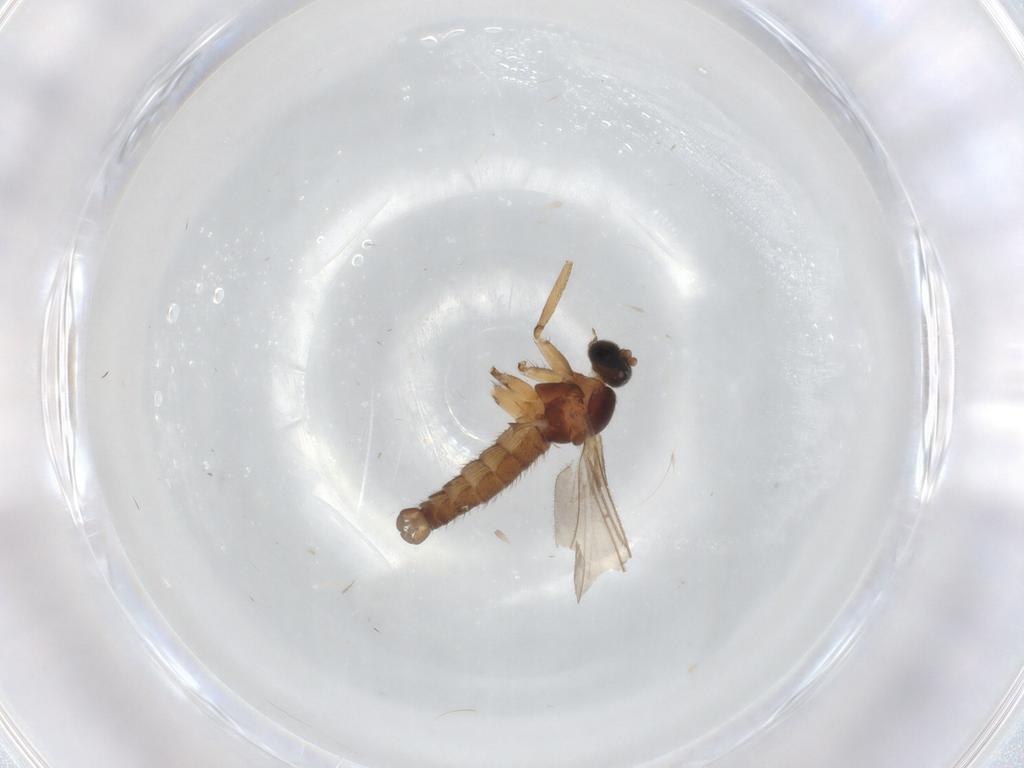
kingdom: Animalia
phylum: Arthropoda
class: Insecta
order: Diptera
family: Sciaridae
